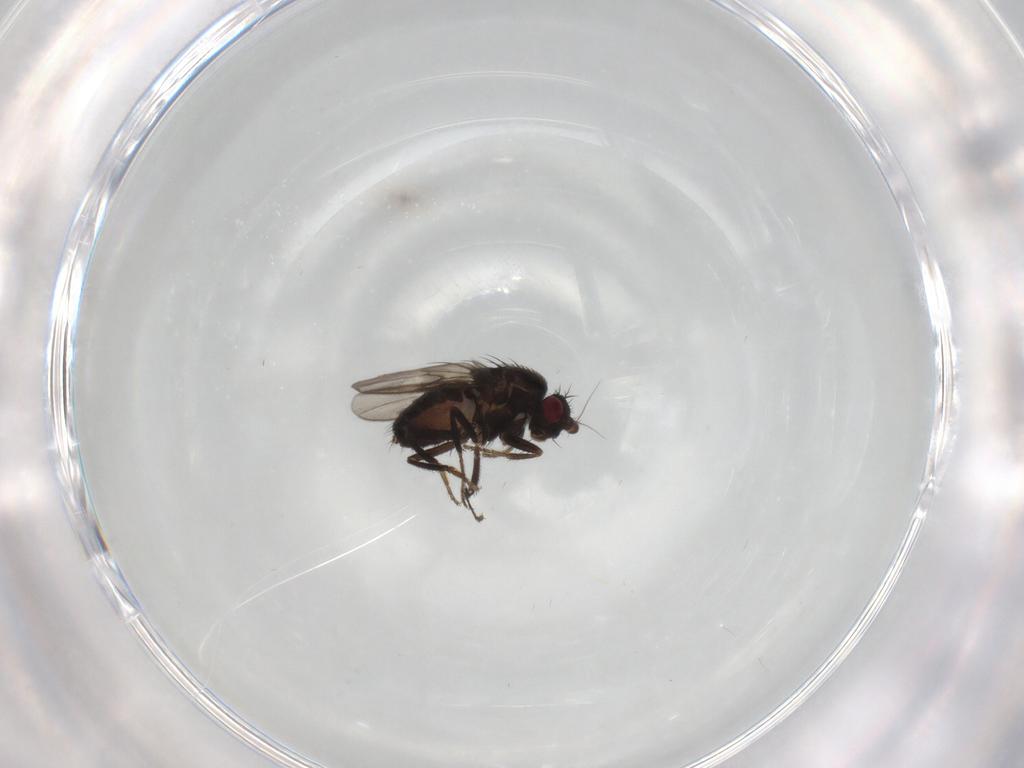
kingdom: Animalia
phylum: Arthropoda
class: Insecta
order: Diptera
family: Sphaeroceridae
